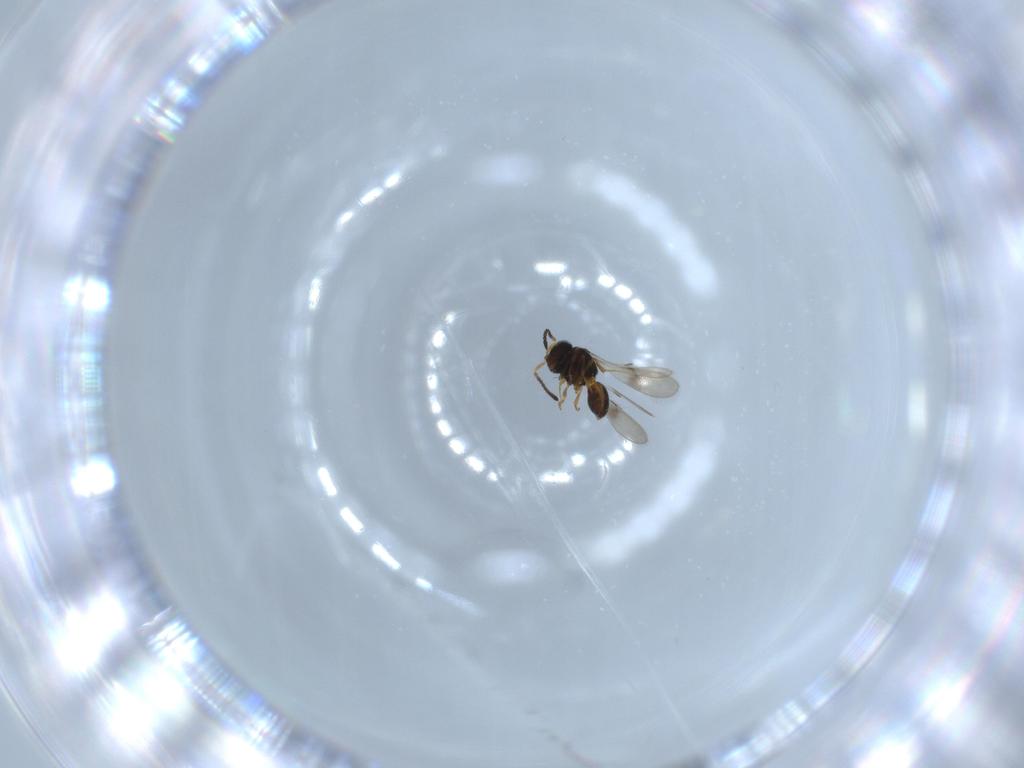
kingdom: Animalia
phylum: Arthropoda
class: Insecta
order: Hymenoptera
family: Scelionidae
